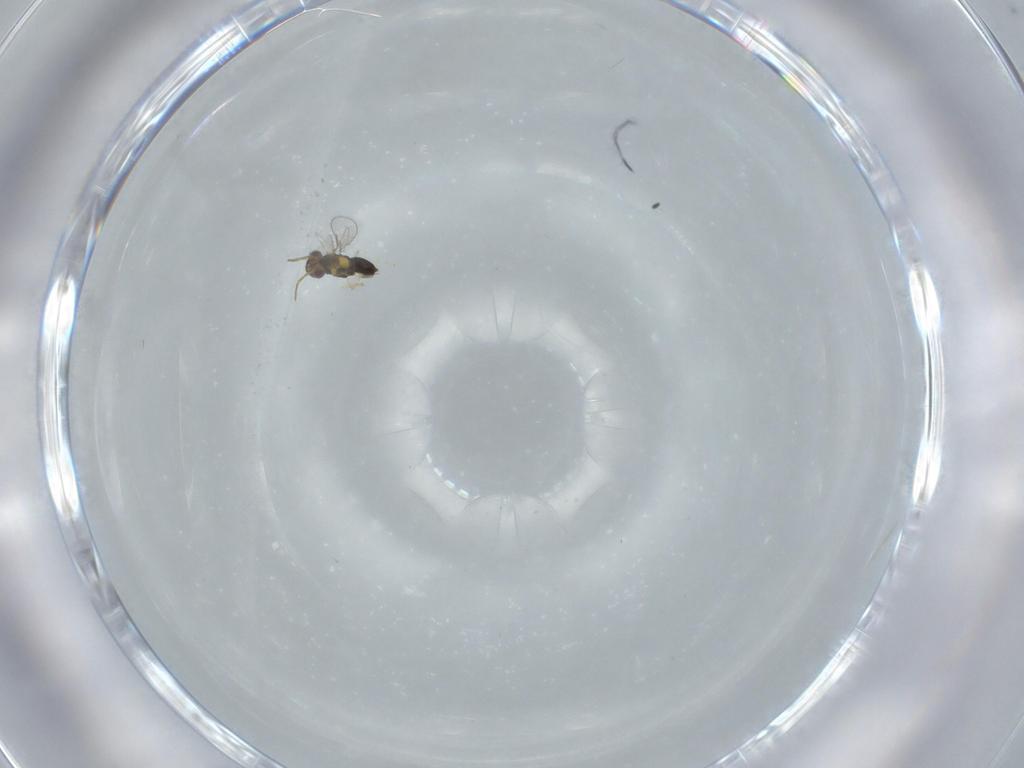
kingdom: Animalia
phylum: Arthropoda
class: Insecta
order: Hymenoptera
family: Aphelinidae
